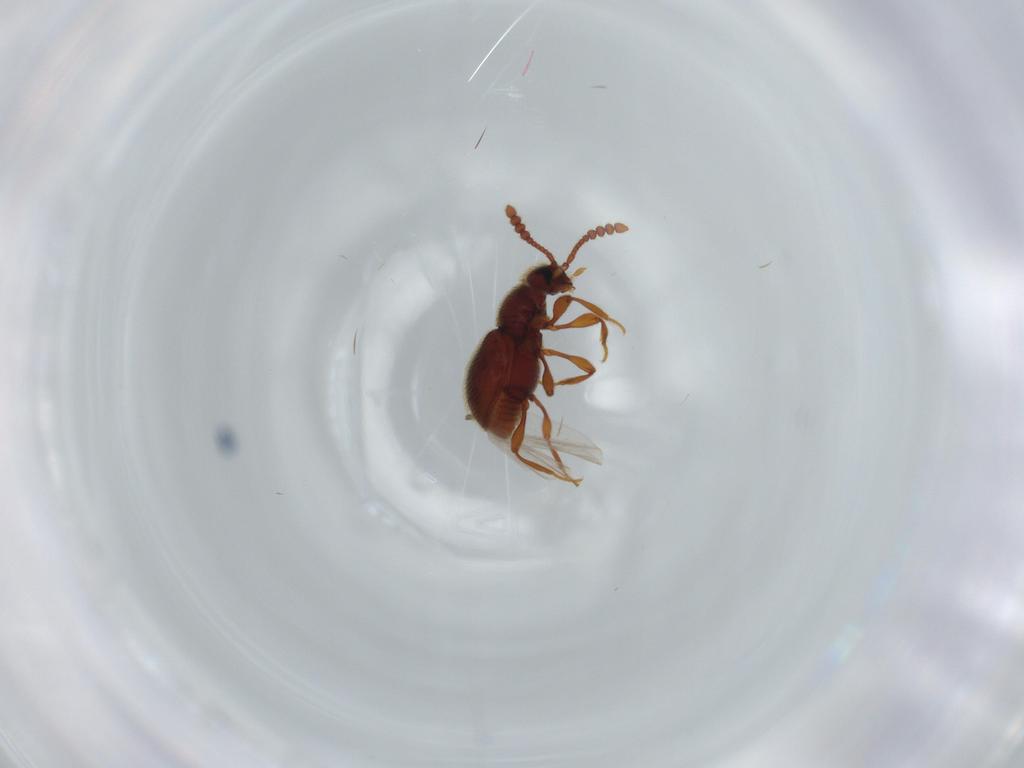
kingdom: Animalia
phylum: Arthropoda
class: Insecta
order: Coleoptera
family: Staphylinidae
